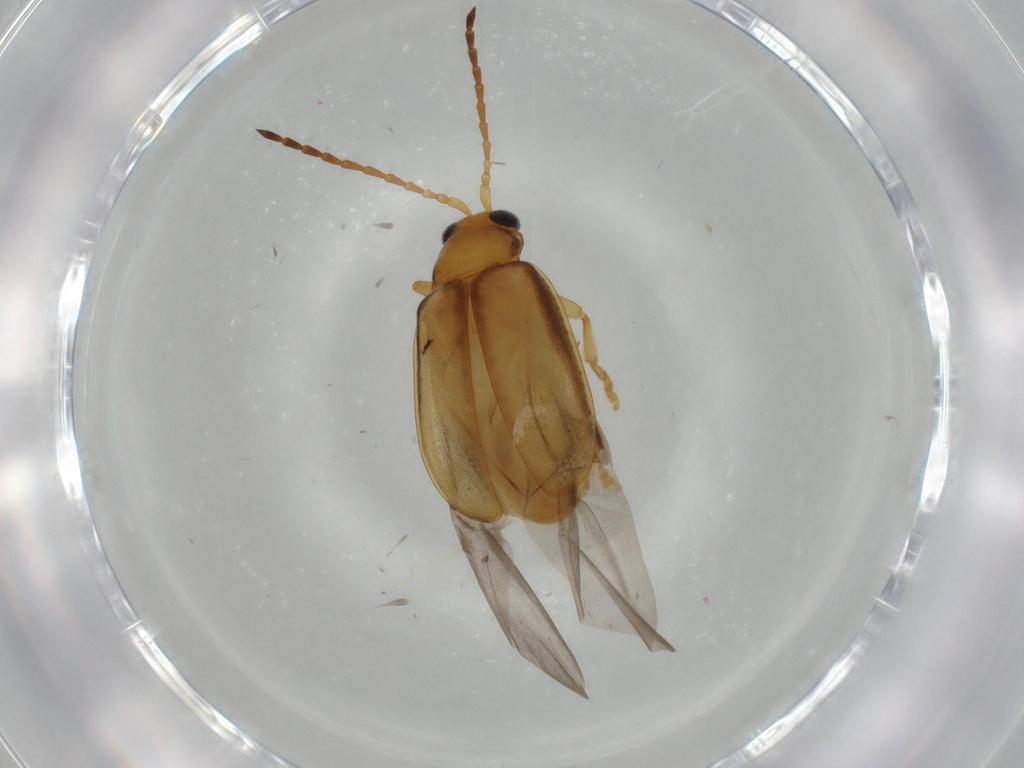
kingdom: Animalia
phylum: Arthropoda
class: Insecta
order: Coleoptera
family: Chrysomelidae
